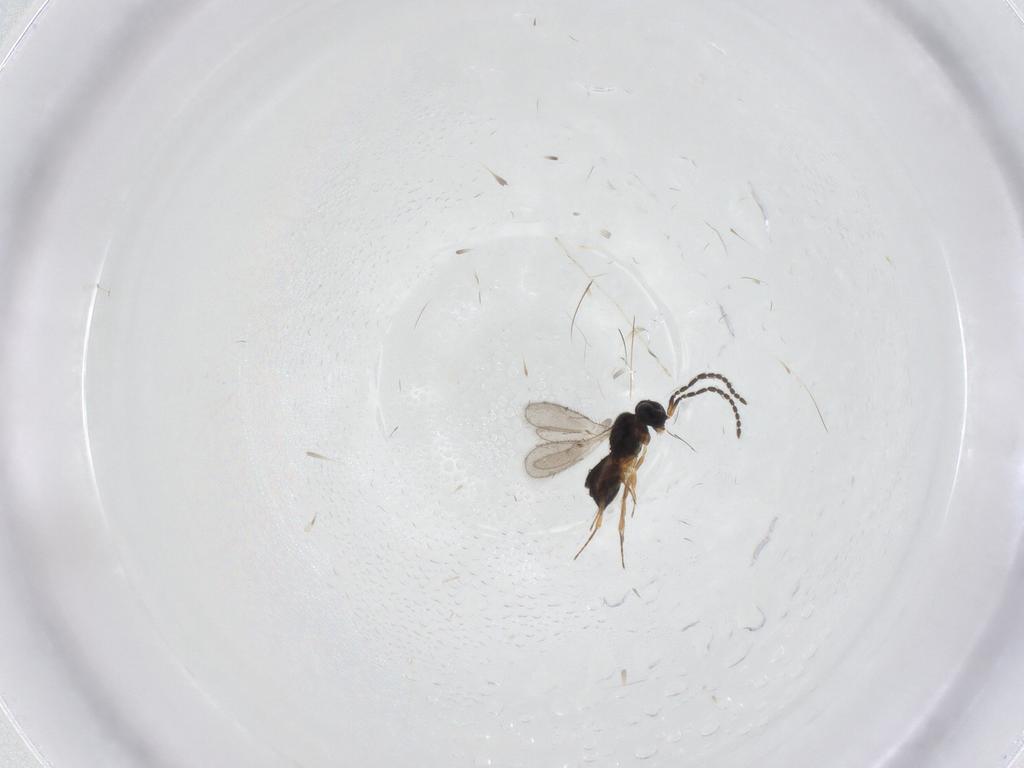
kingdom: Animalia
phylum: Arthropoda
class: Insecta
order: Hymenoptera
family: Scelionidae
